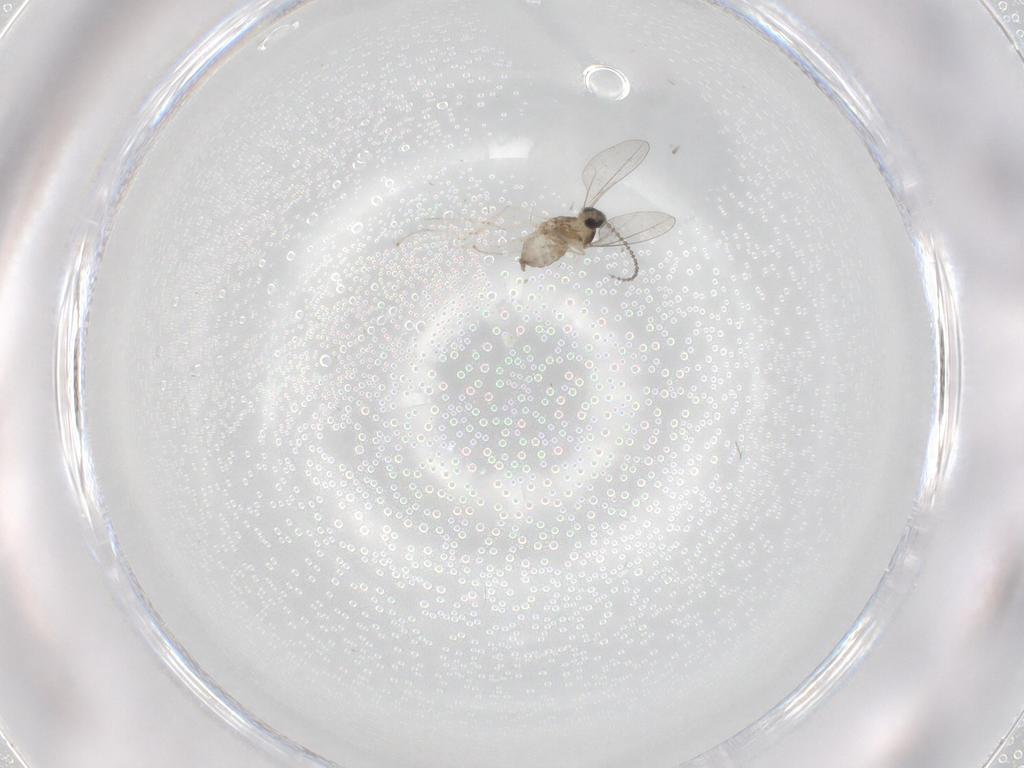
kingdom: Animalia
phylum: Arthropoda
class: Insecta
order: Diptera
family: Cecidomyiidae
